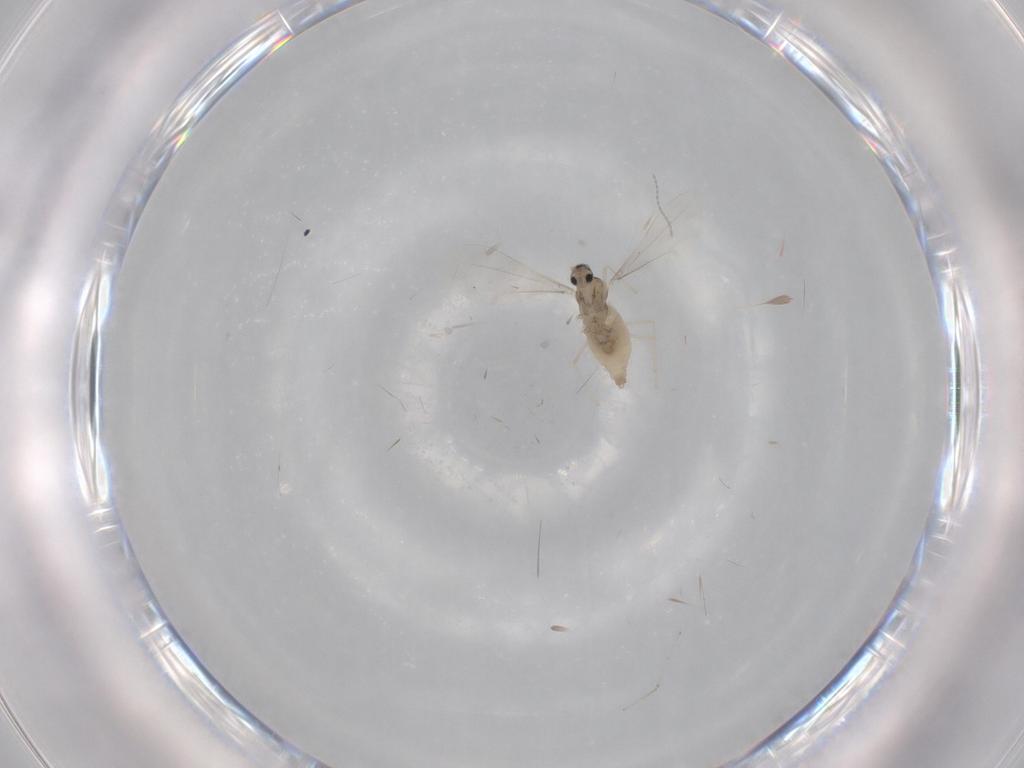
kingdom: Animalia
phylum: Arthropoda
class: Insecta
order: Diptera
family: Cecidomyiidae
